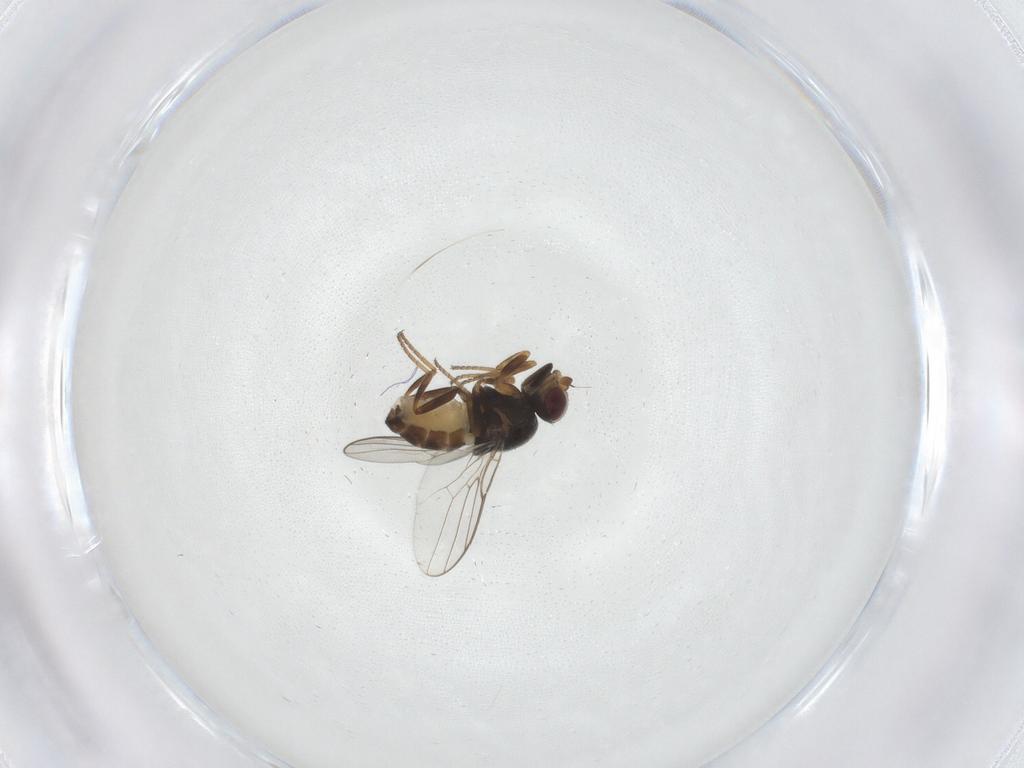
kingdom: Animalia
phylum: Arthropoda
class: Insecta
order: Diptera
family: Chloropidae
